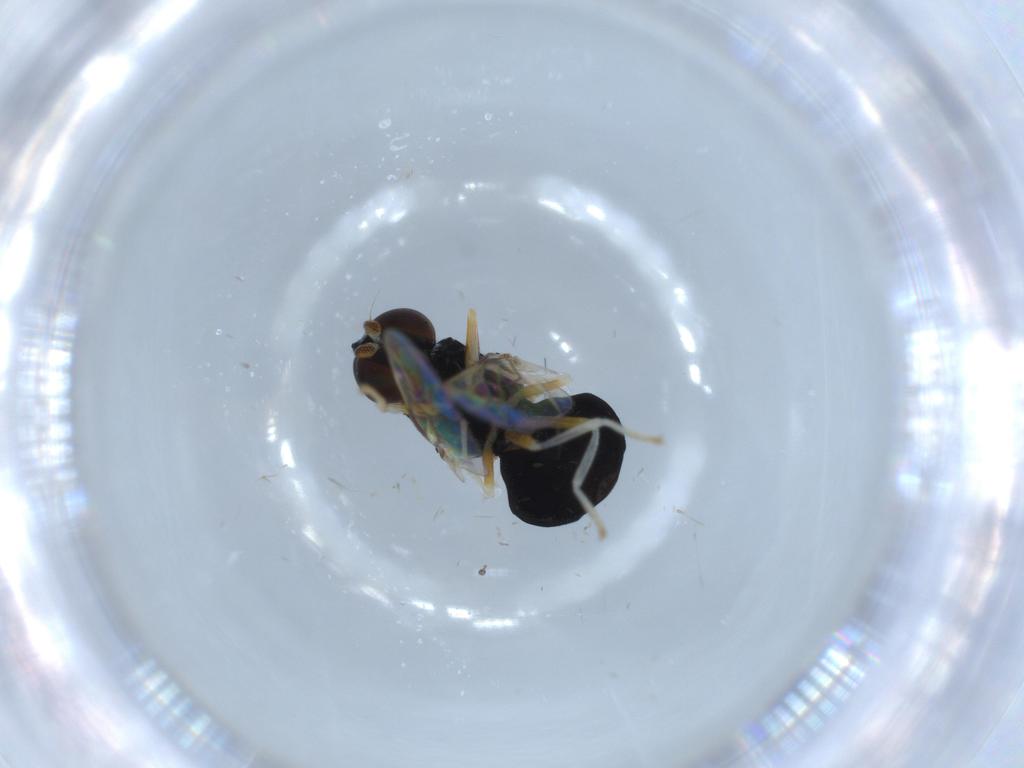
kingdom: Animalia
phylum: Arthropoda
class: Insecta
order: Diptera
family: Stratiomyidae
